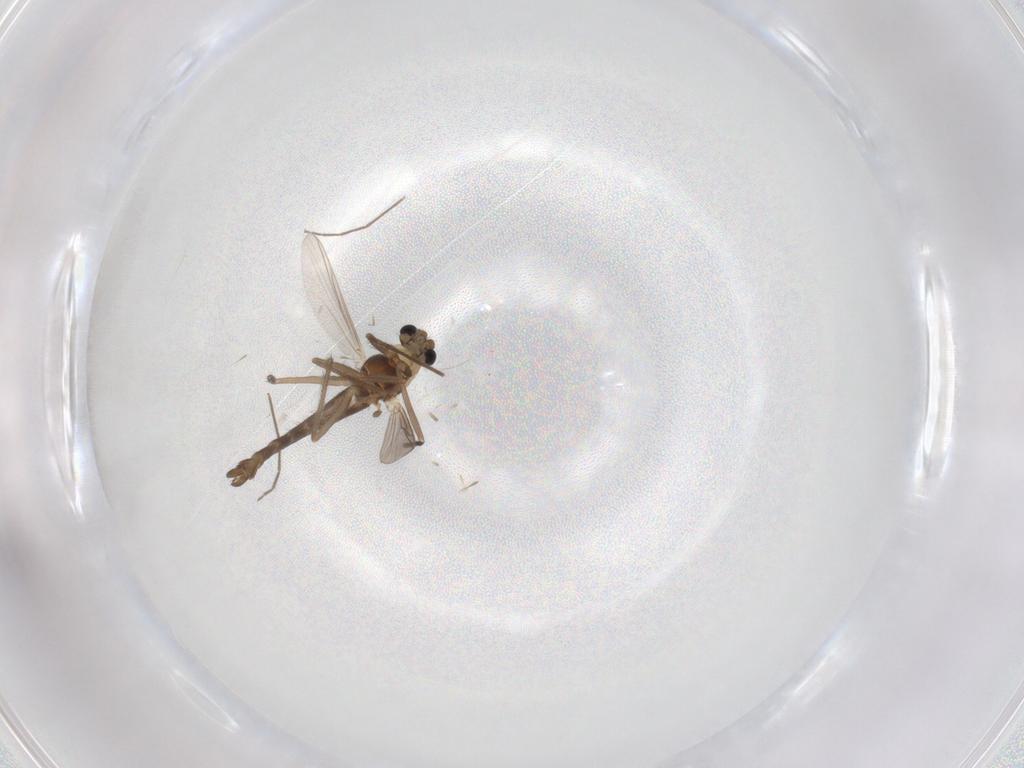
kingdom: Animalia
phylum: Arthropoda
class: Insecta
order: Diptera
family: Chironomidae
